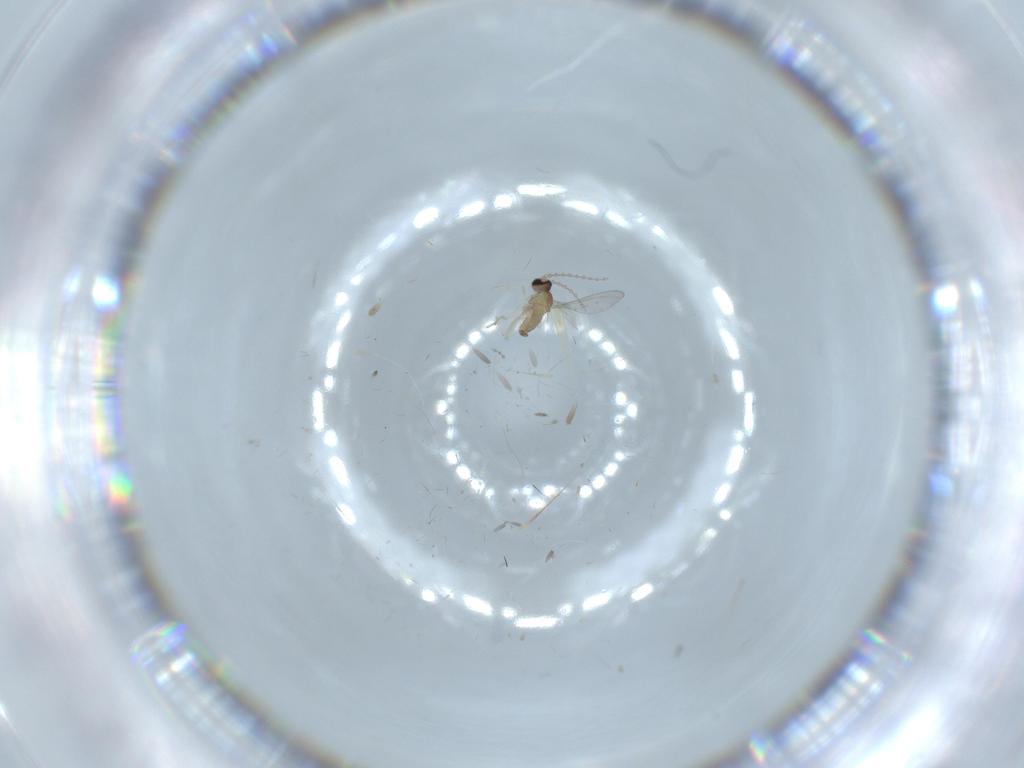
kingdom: Animalia
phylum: Arthropoda
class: Insecta
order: Diptera
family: Cecidomyiidae
